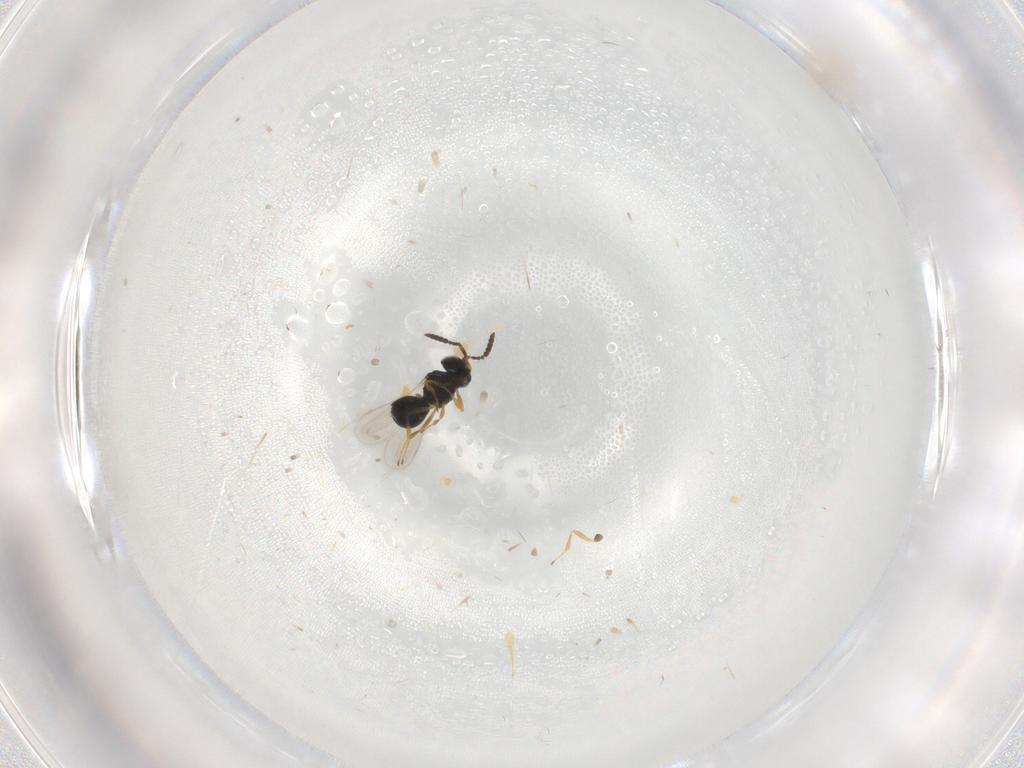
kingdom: Animalia
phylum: Arthropoda
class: Insecta
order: Hymenoptera
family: Mymaridae
